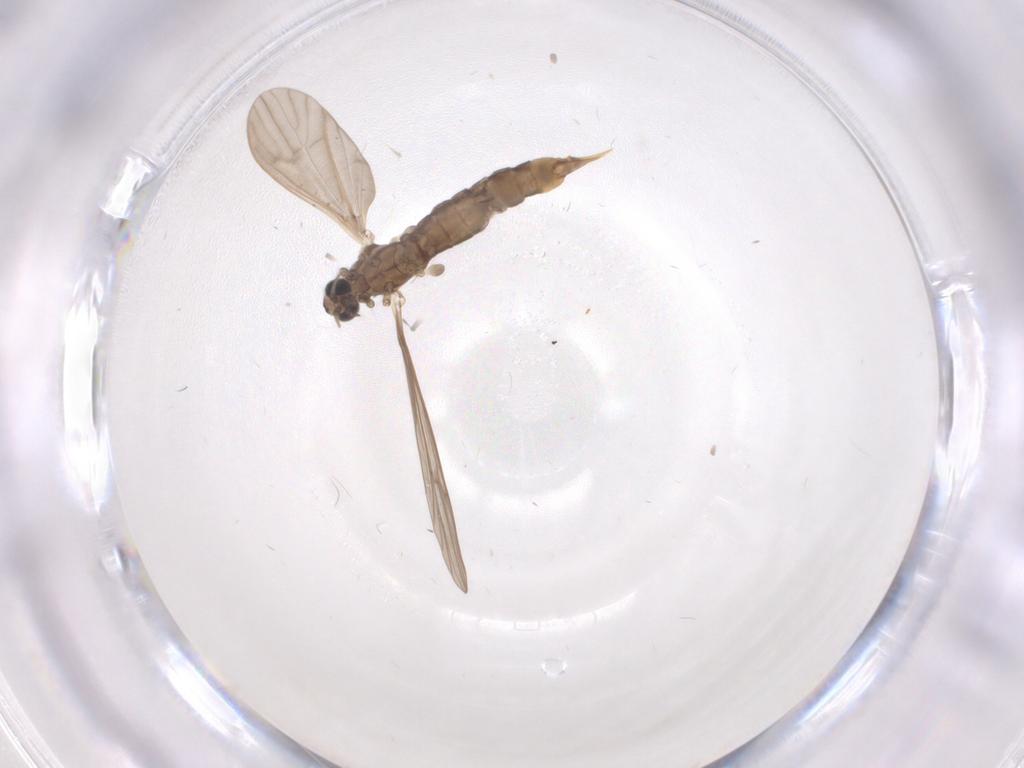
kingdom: Animalia
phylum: Arthropoda
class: Insecta
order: Diptera
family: Limoniidae
